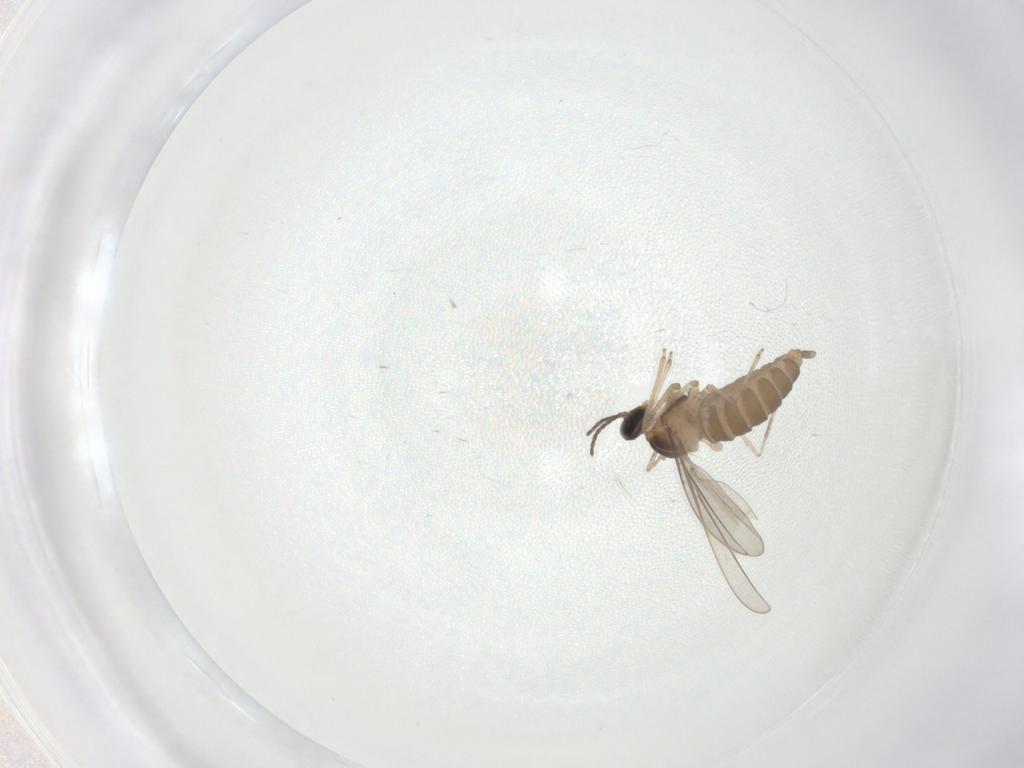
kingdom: Animalia
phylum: Arthropoda
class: Insecta
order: Diptera
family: Cecidomyiidae
